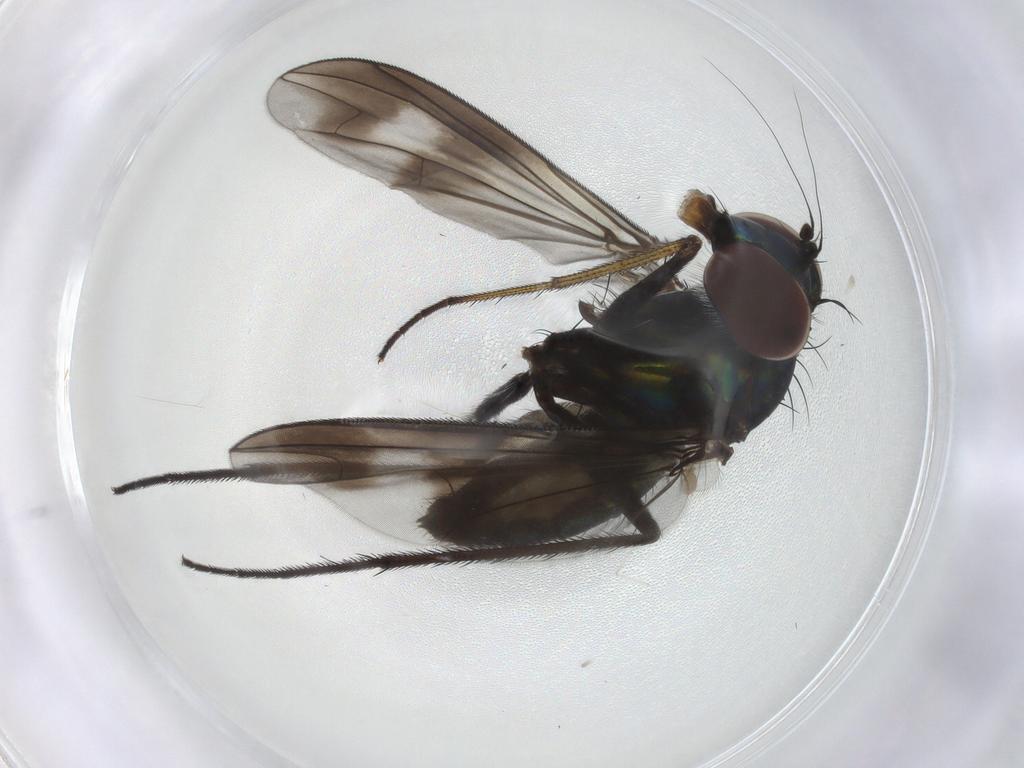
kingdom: Animalia
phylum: Arthropoda
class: Insecta
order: Diptera
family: Dolichopodidae
